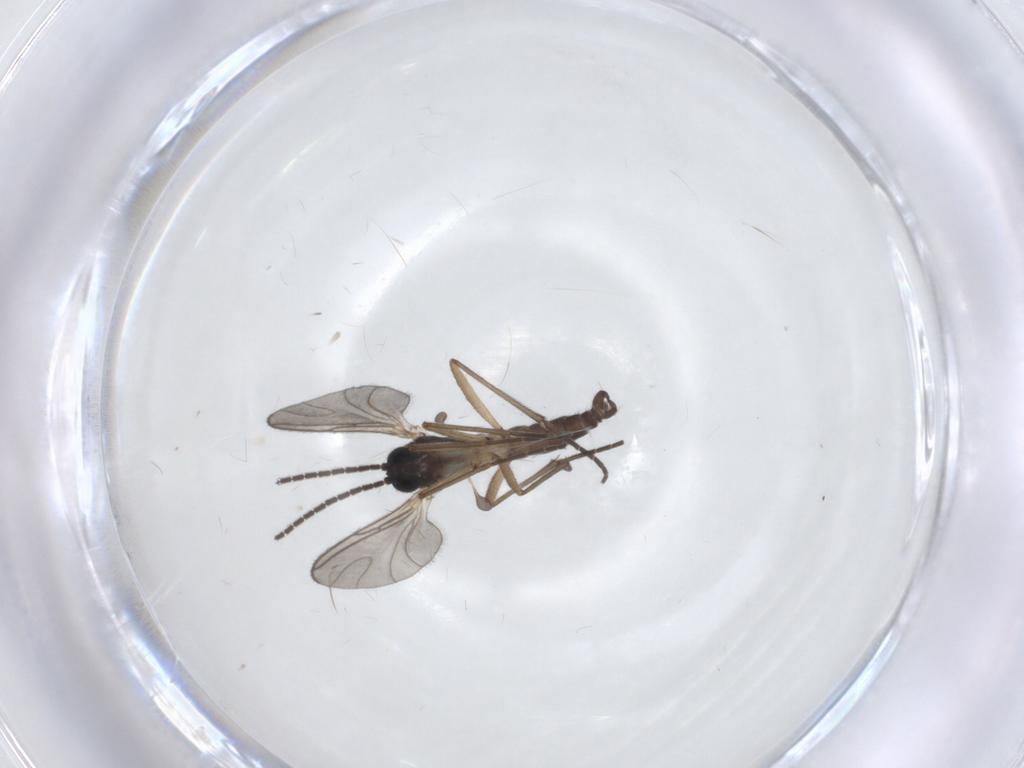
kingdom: Animalia
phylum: Arthropoda
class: Insecta
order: Diptera
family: Sciaridae
